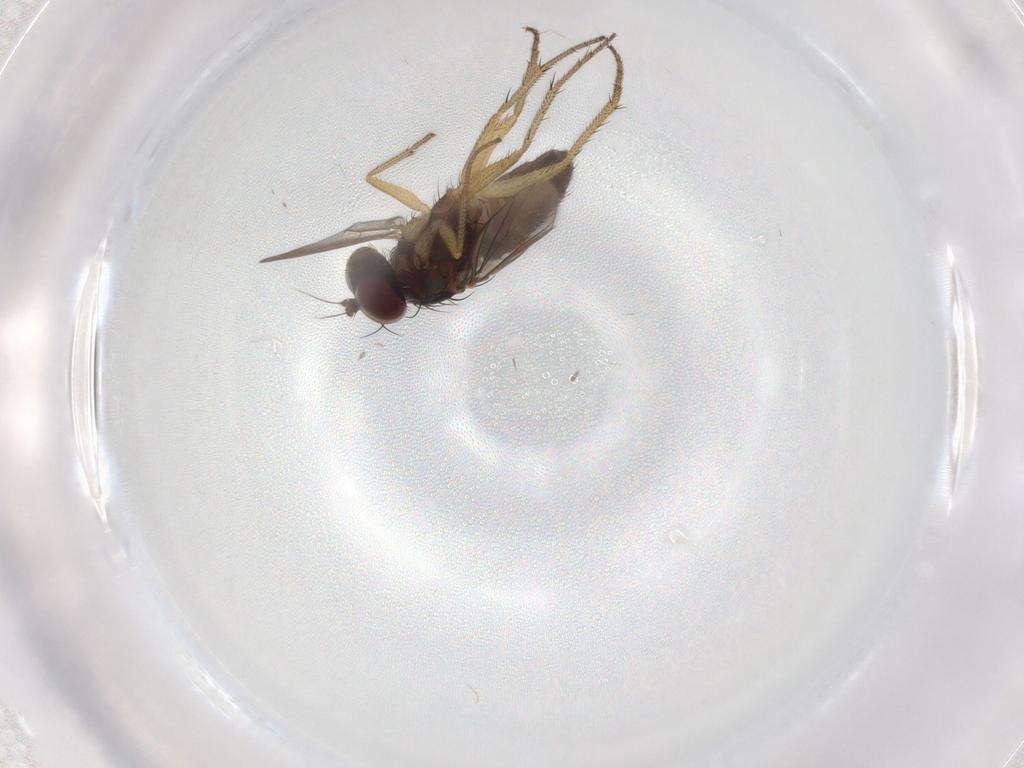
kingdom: Animalia
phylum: Arthropoda
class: Insecta
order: Diptera
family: Dolichopodidae
